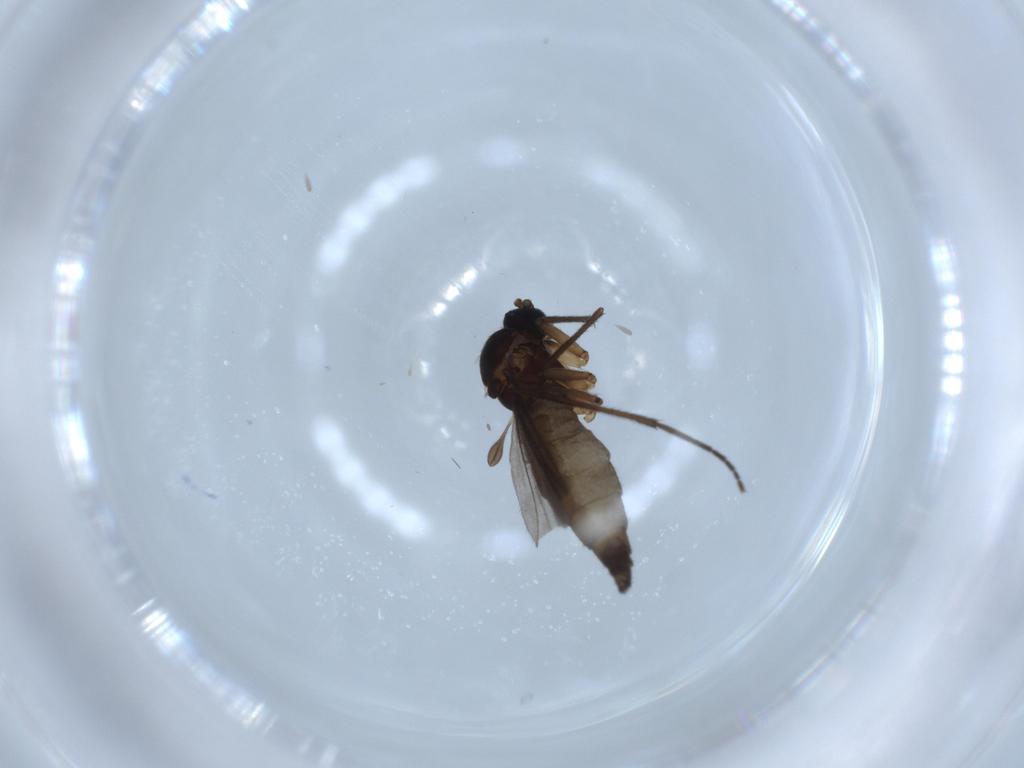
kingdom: Animalia
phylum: Arthropoda
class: Insecta
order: Diptera
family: Sciaridae
